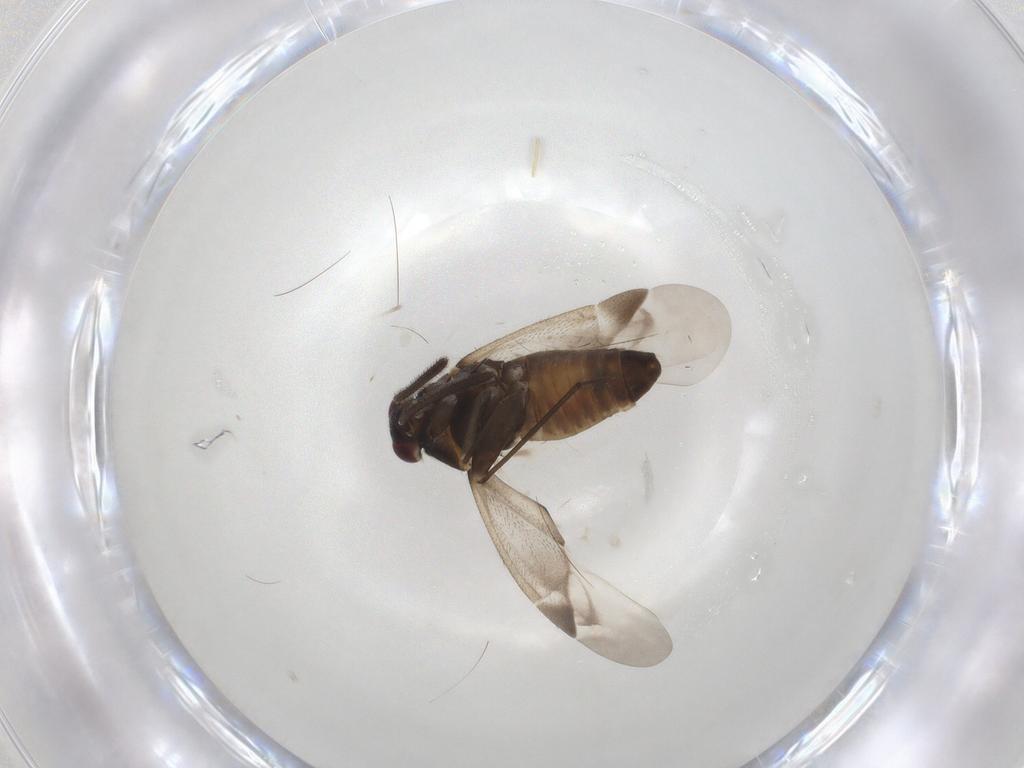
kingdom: Animalia
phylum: Arthropoda
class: Insecta
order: Hemiptera
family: Miridae
